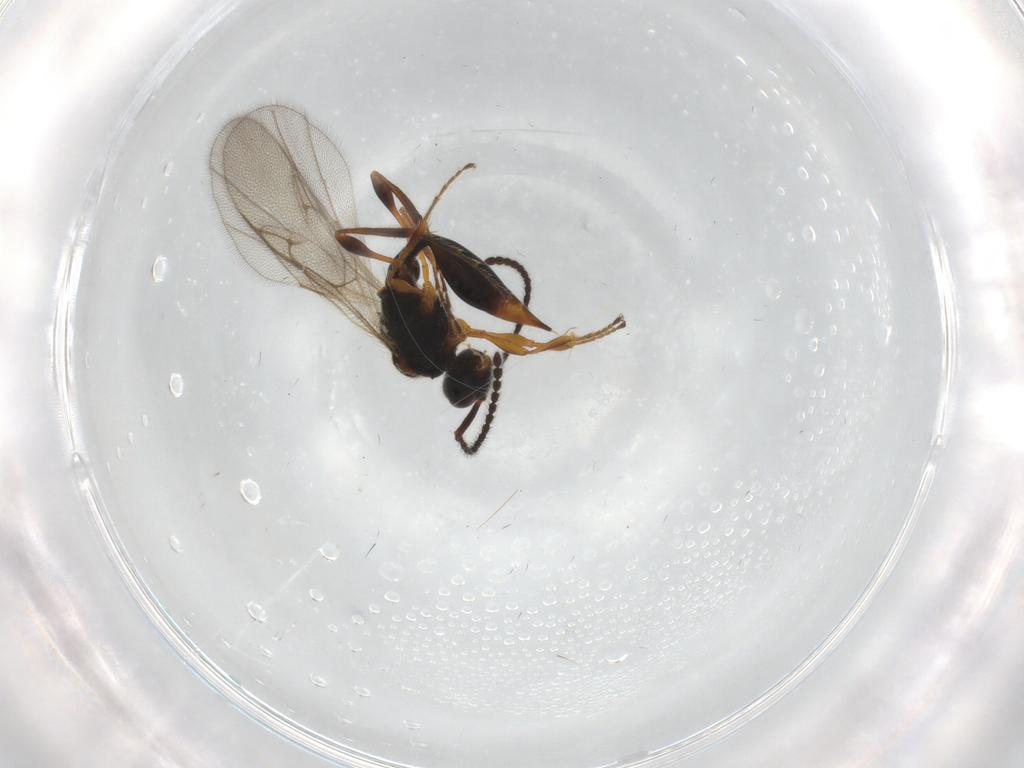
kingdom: Animalia
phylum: Arthropoda
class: Insecta
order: Hymenoptera
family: Diapriidae
